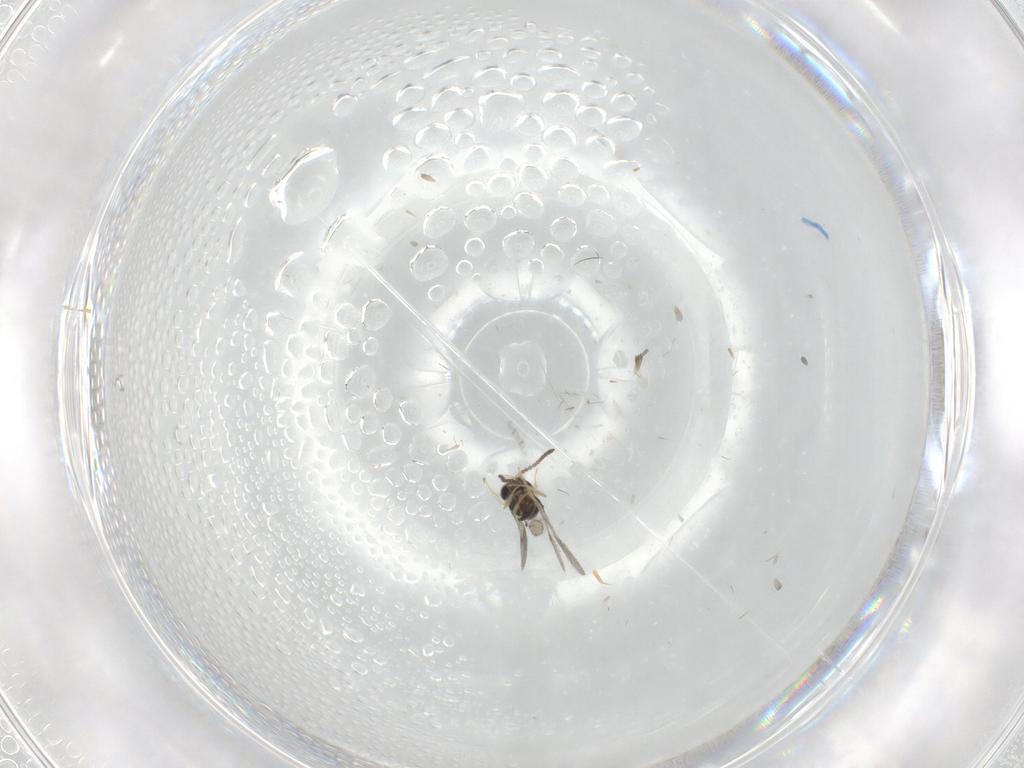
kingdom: Animalia
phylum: Arthropoda
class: Insecta
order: Hymenoptera
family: Scelionidae
